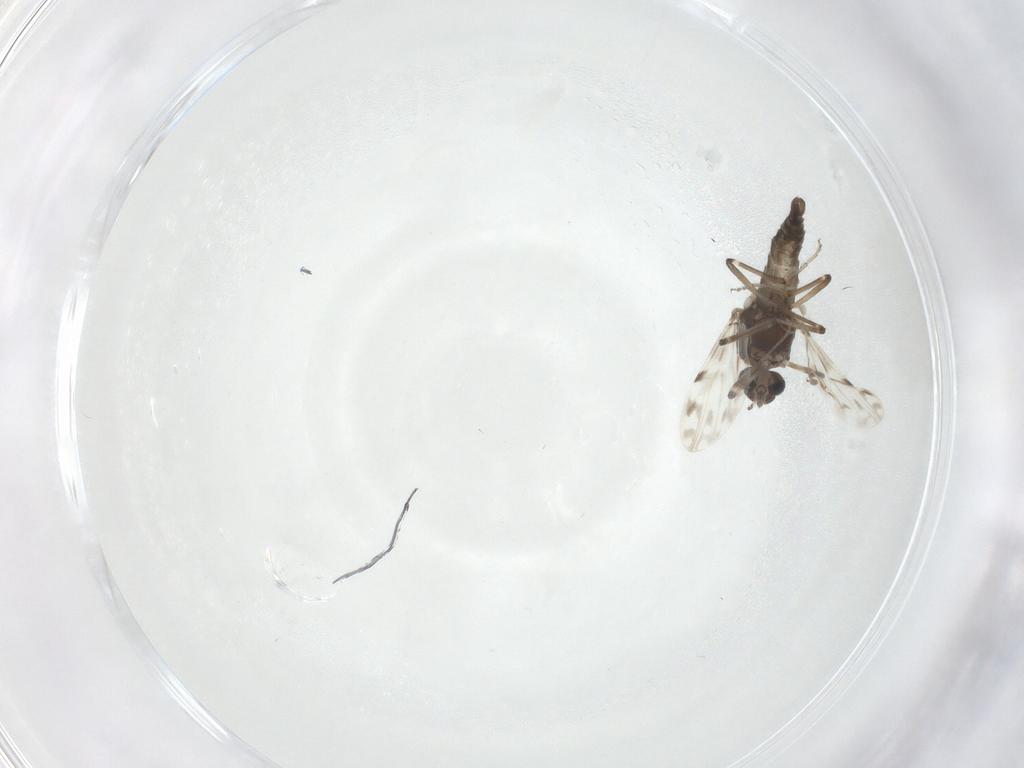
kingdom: Animalia
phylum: Arthropoda
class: Insecta
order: Diptera
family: Ceratopogonidae
